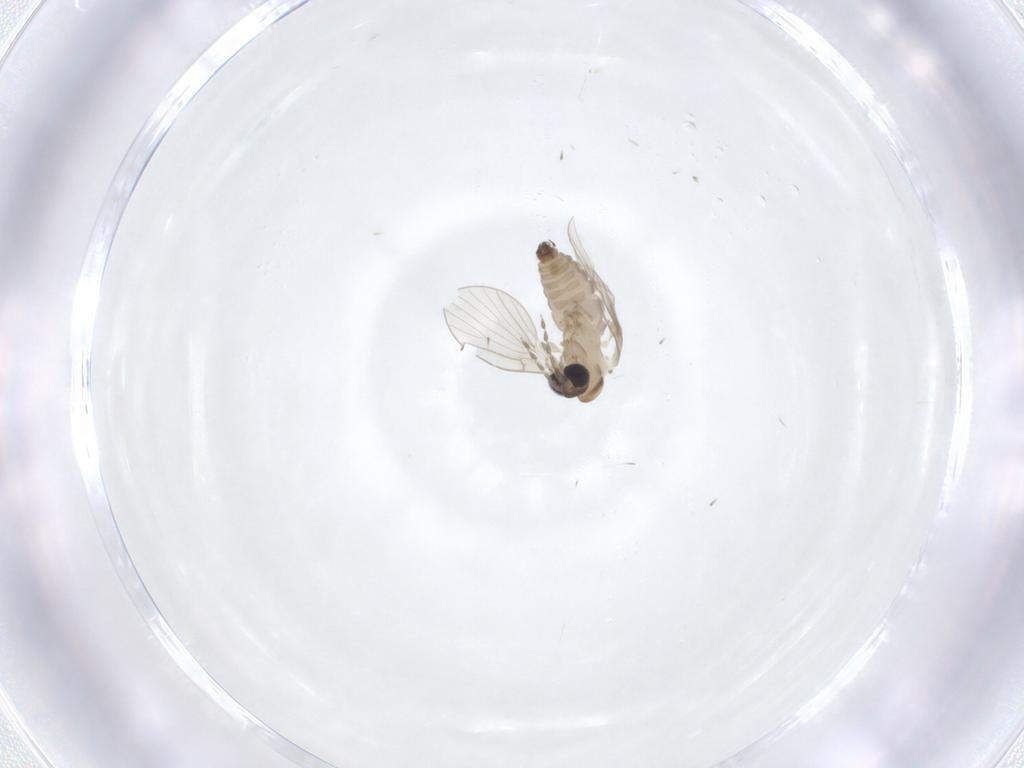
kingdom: Animalia
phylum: Arthropoda
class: Insecta
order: Diptera
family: Psychodidae
